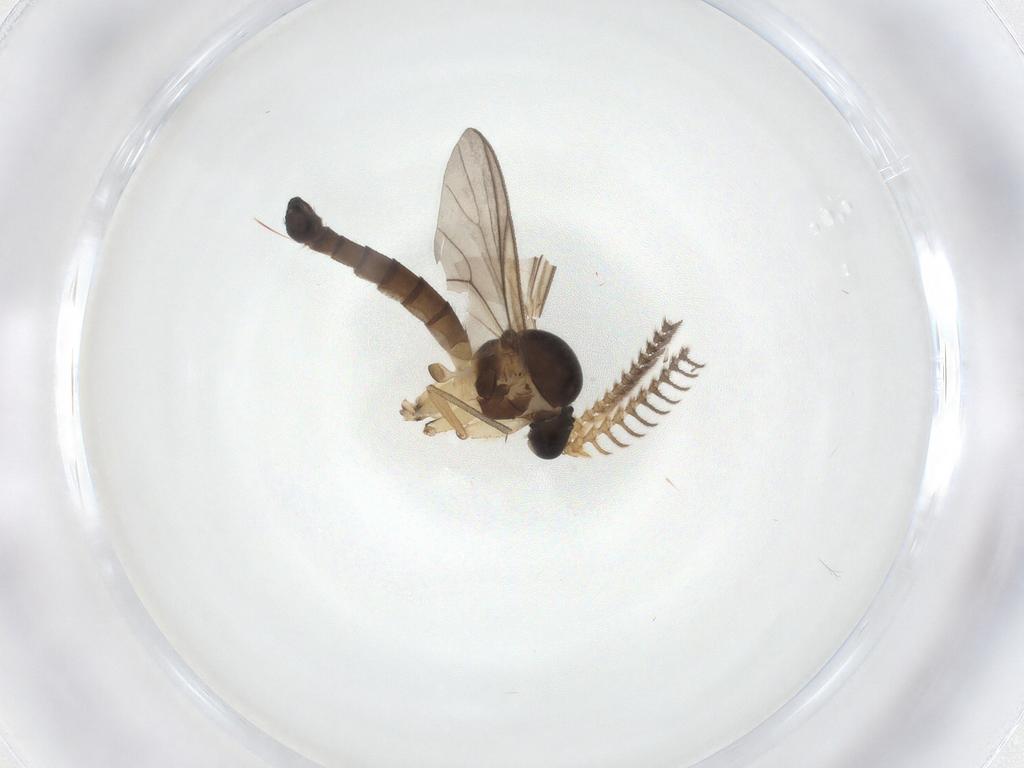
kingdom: Animalia
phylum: Arthropoda
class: Insecta
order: Diptera
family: Mycetophilidae
